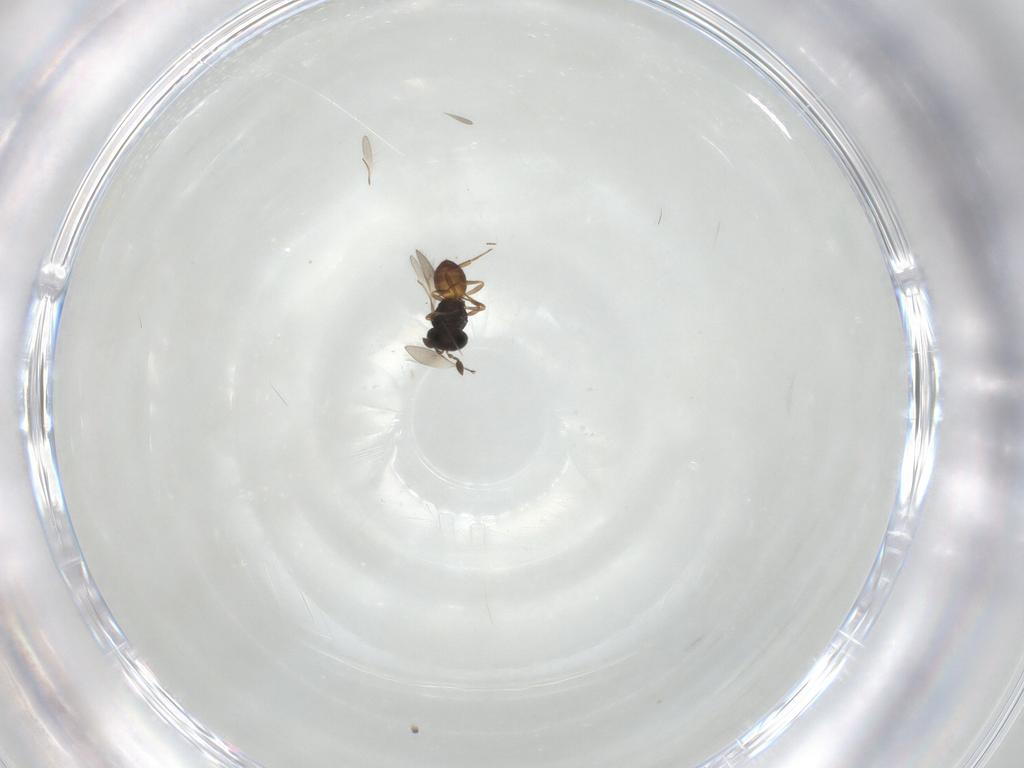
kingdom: Animalia
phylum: Arthropoda
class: Insecta
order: Hymenoptera
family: Scelionidae
